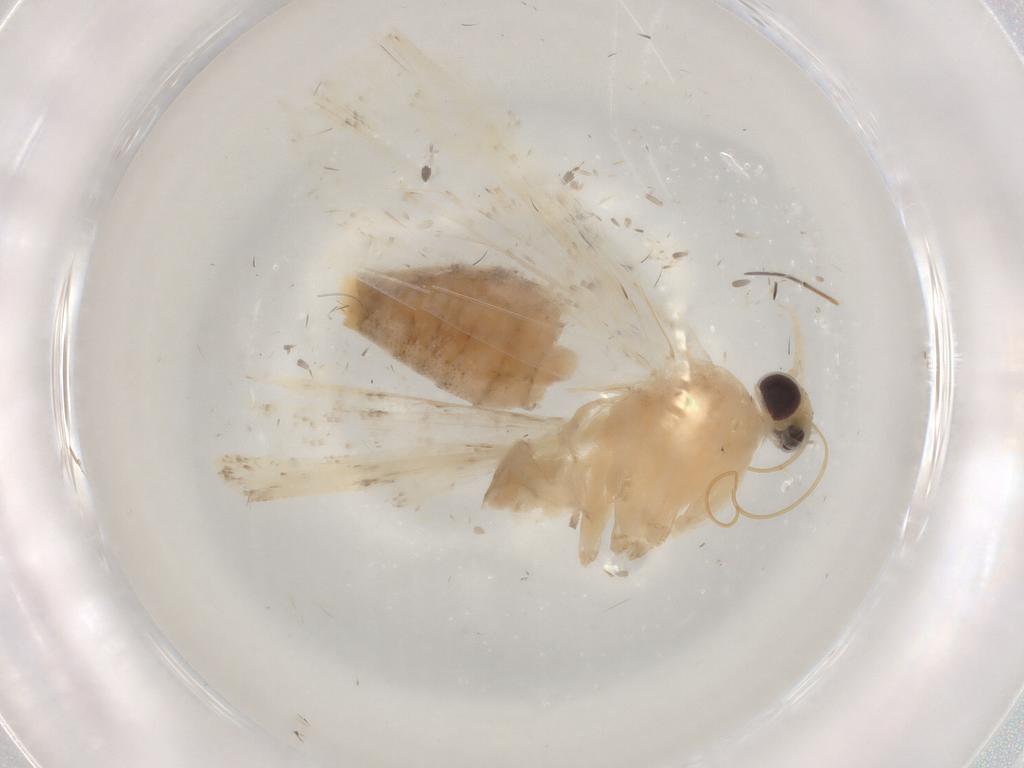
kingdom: Animalia
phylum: Arthropoda
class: Insecta
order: Lepidoptera
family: Crambidae
